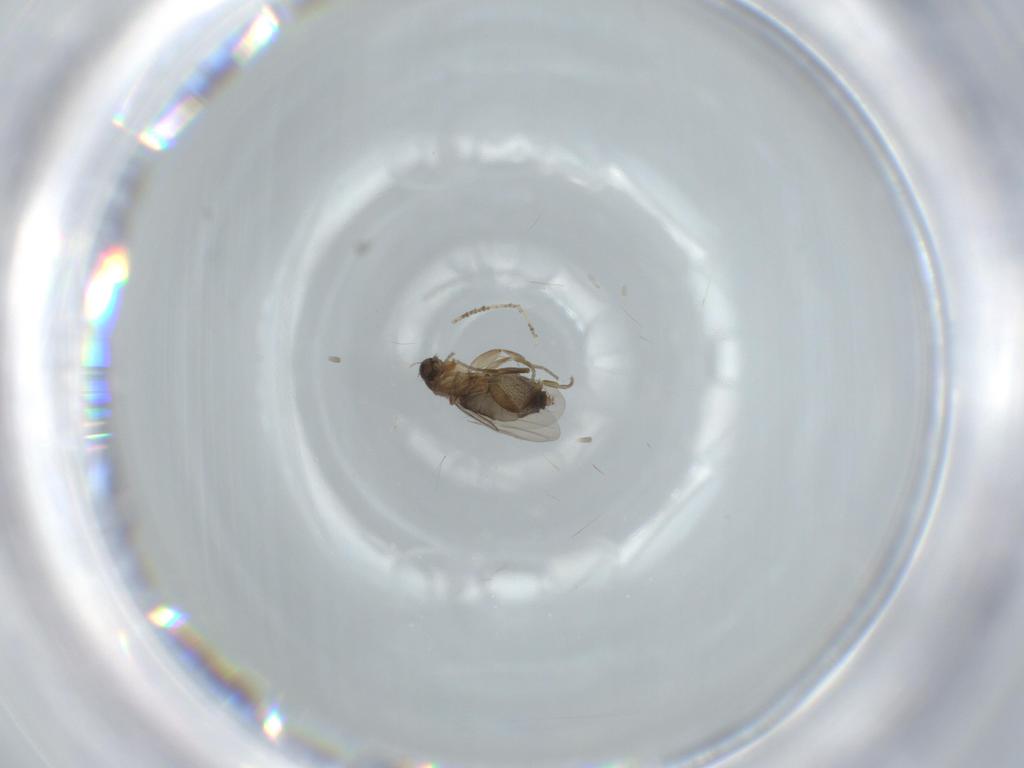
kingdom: Animalia
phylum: Arthropoda
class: Insecta
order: Diptera
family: Phoridae
